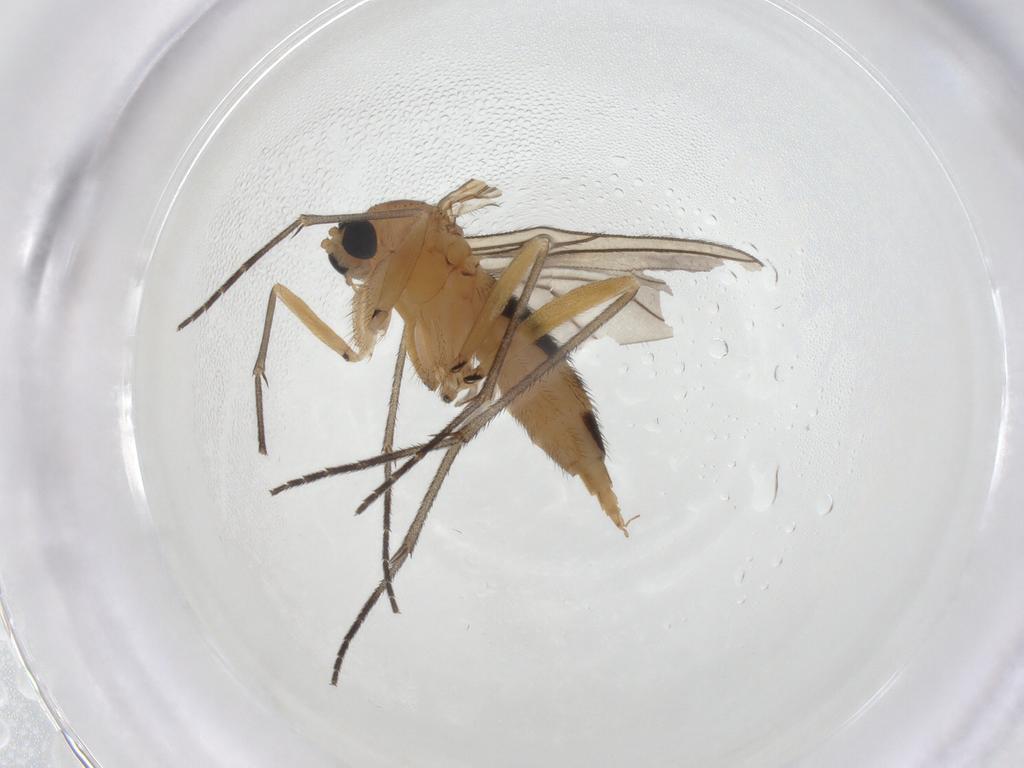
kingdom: Animalia
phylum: Arthropoda
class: Insecta
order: Diptera
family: Sciaridae
